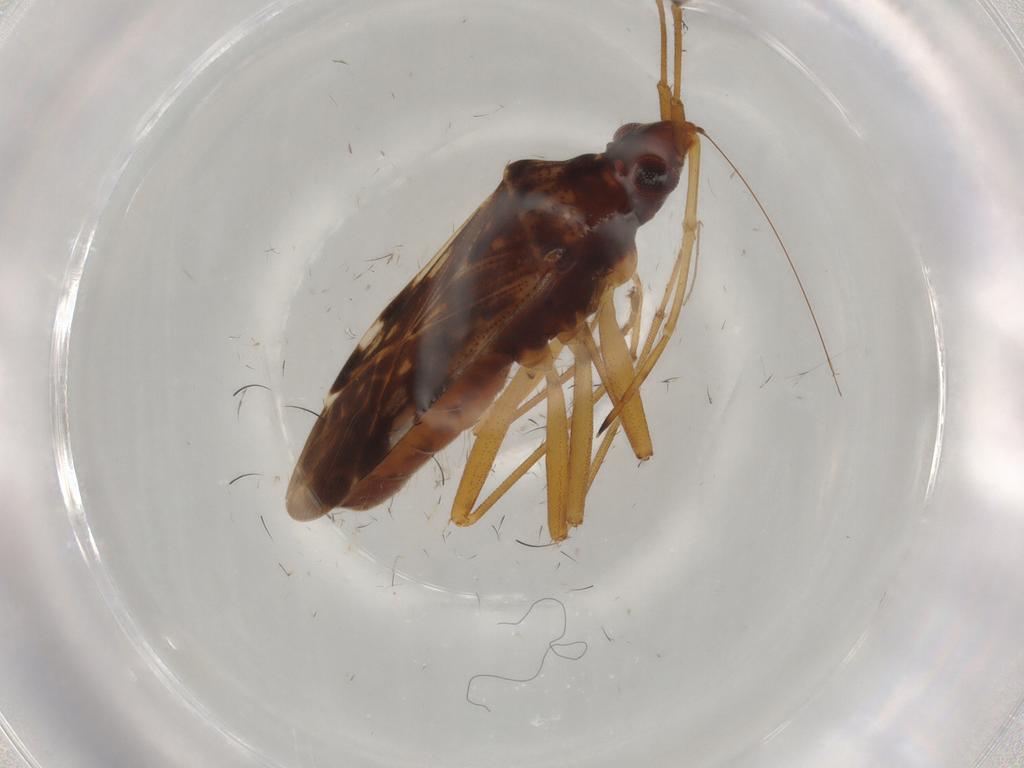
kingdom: Animalia
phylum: Arthropoda
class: Insecta
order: Hemiptera
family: Rhyparochromidae
